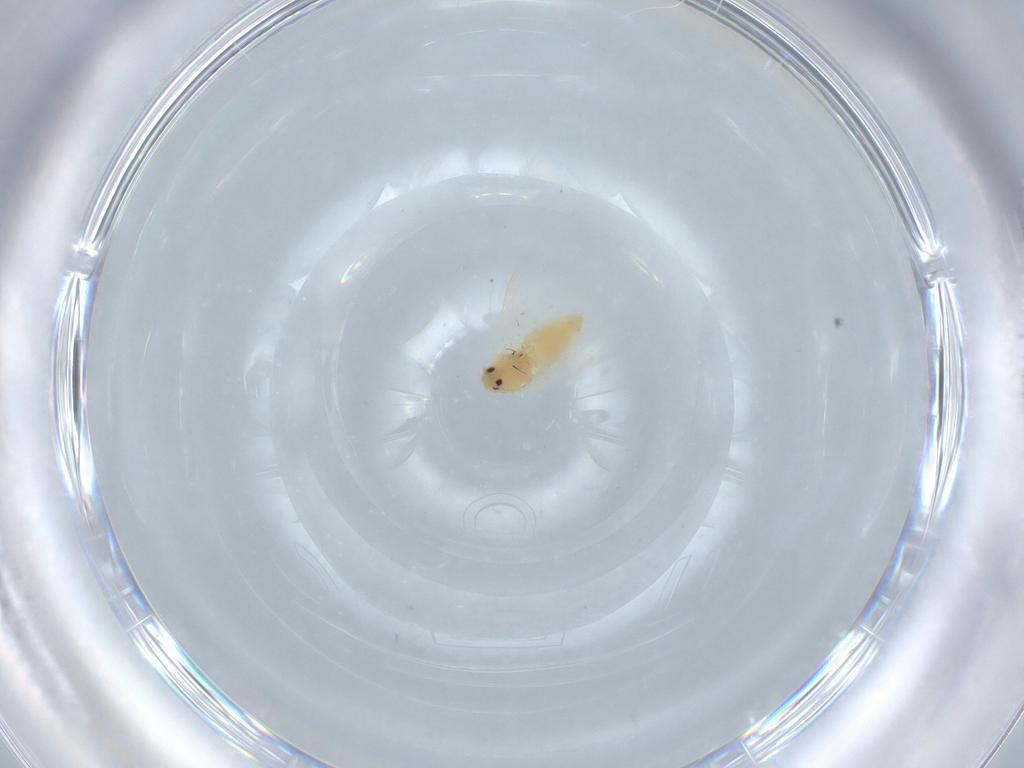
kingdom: Animalia
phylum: Arthropoda
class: Insecta
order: Hemiptera
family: Aleyrodidae
